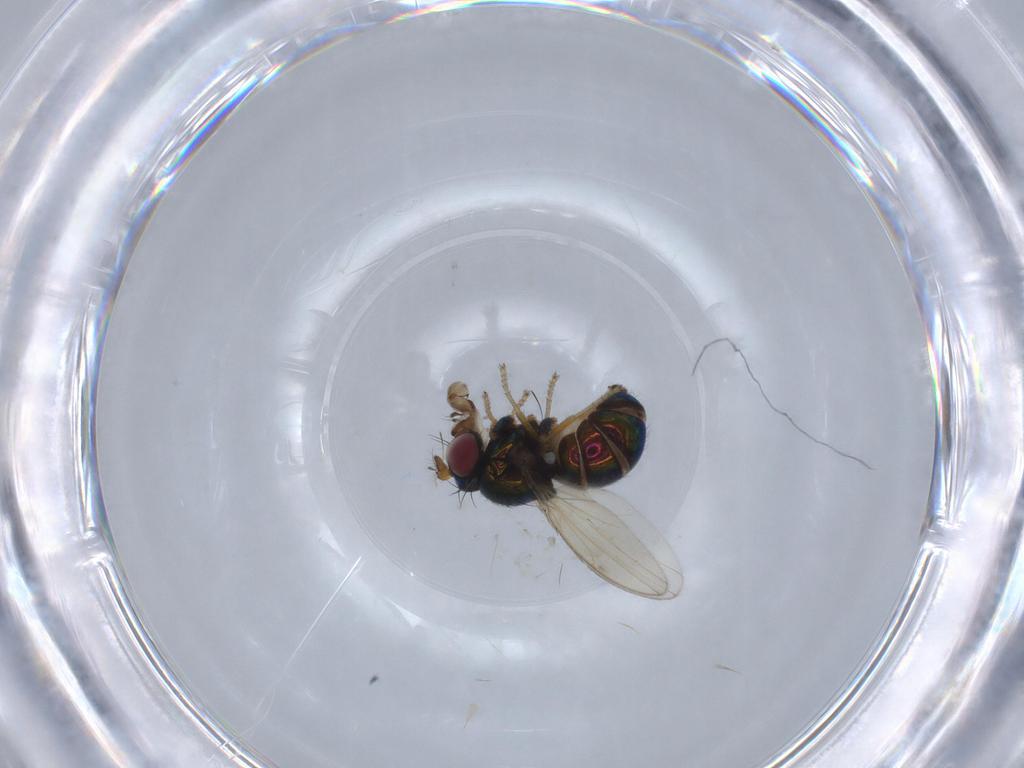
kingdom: Animalia
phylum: Arthropoda
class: Insecta
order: Diptera
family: Ephydridae
